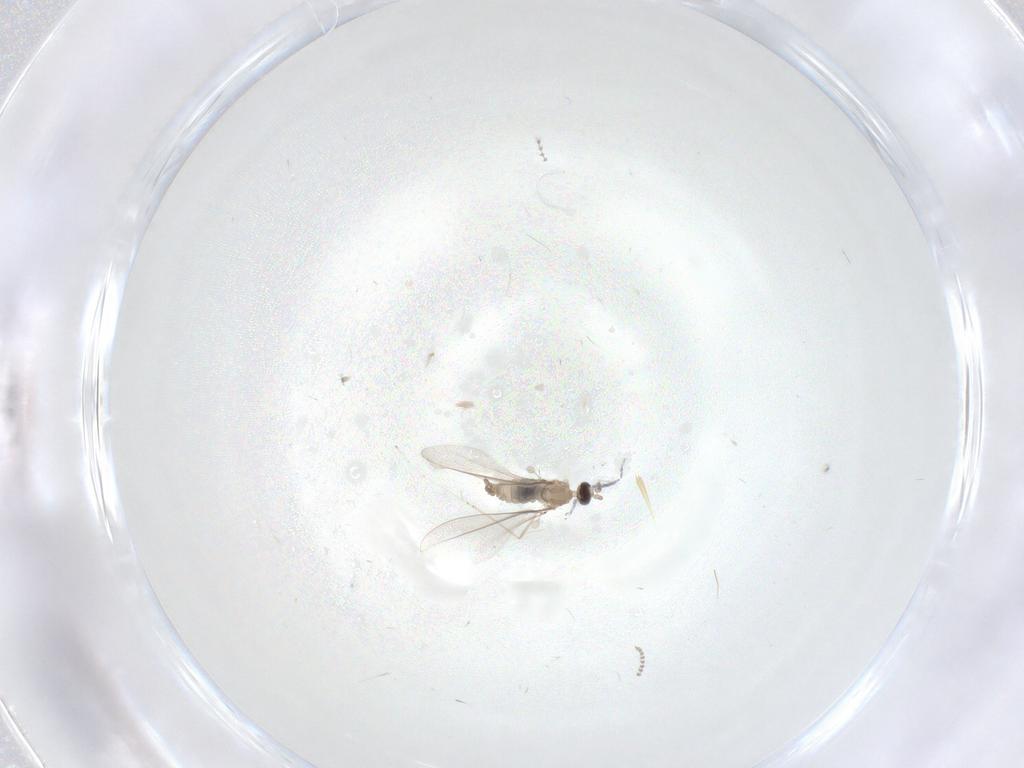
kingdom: Animalia
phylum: Arthropoda
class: Insecta
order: Diptera
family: Cecidomyiidae
